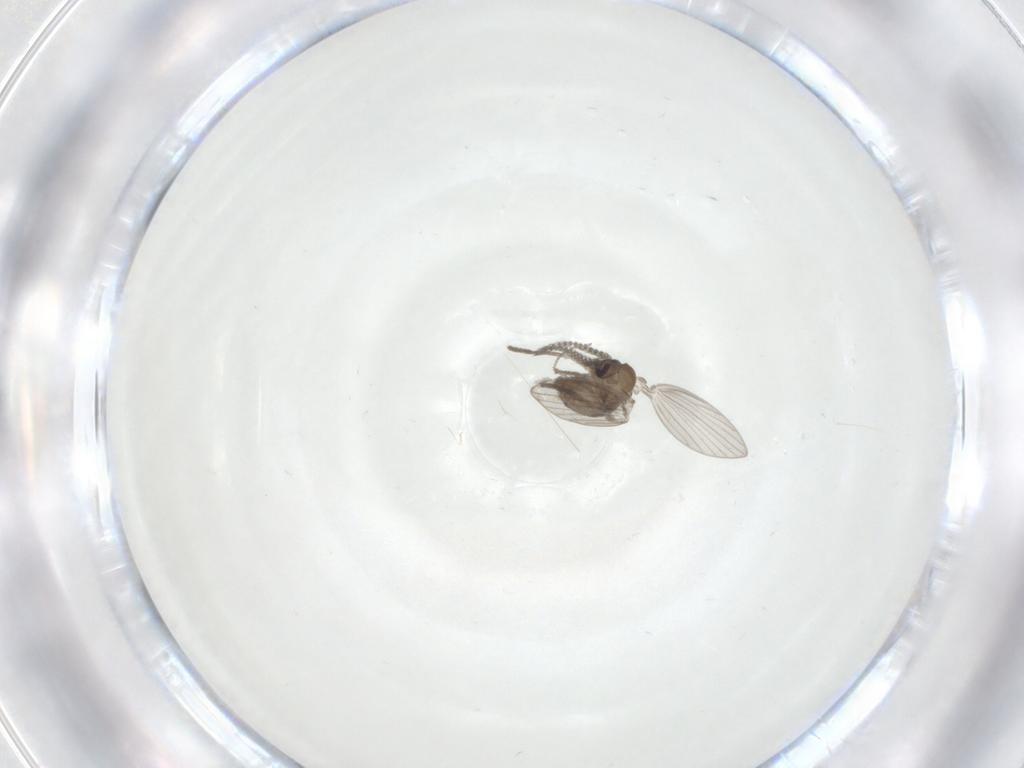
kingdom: Animalia
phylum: Arthropoda
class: Insecta
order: Diptera
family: Psychodidae
